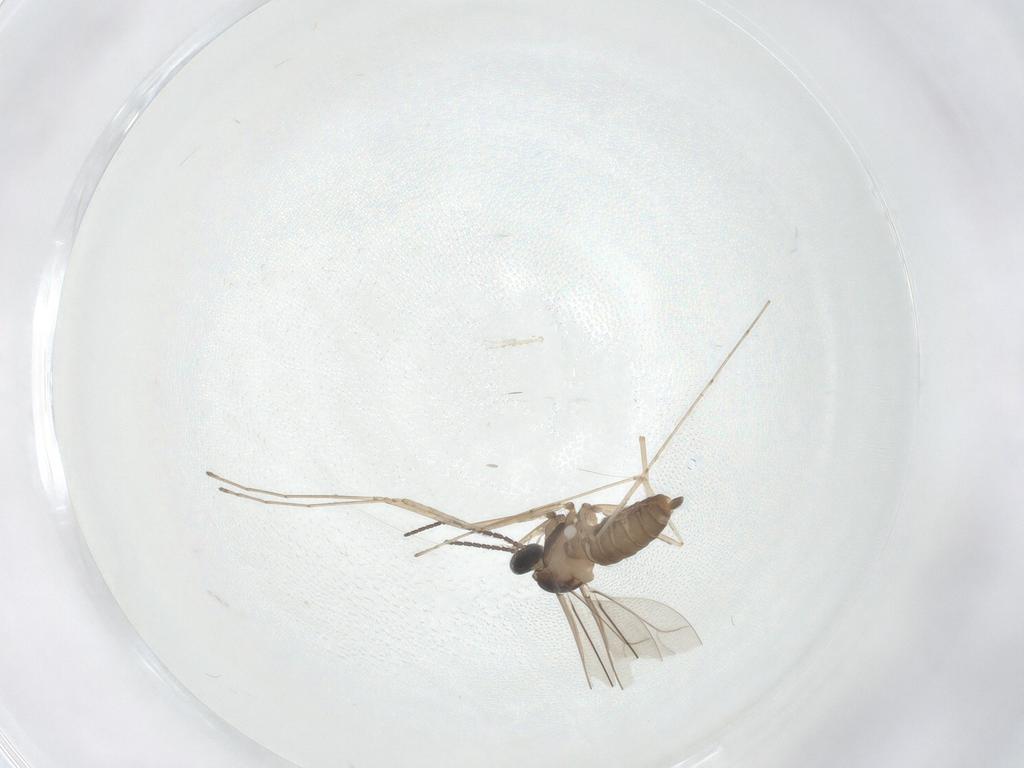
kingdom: Animalia
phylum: Arthropoda
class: Insecta
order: Diptera
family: Cecidomyiidae
